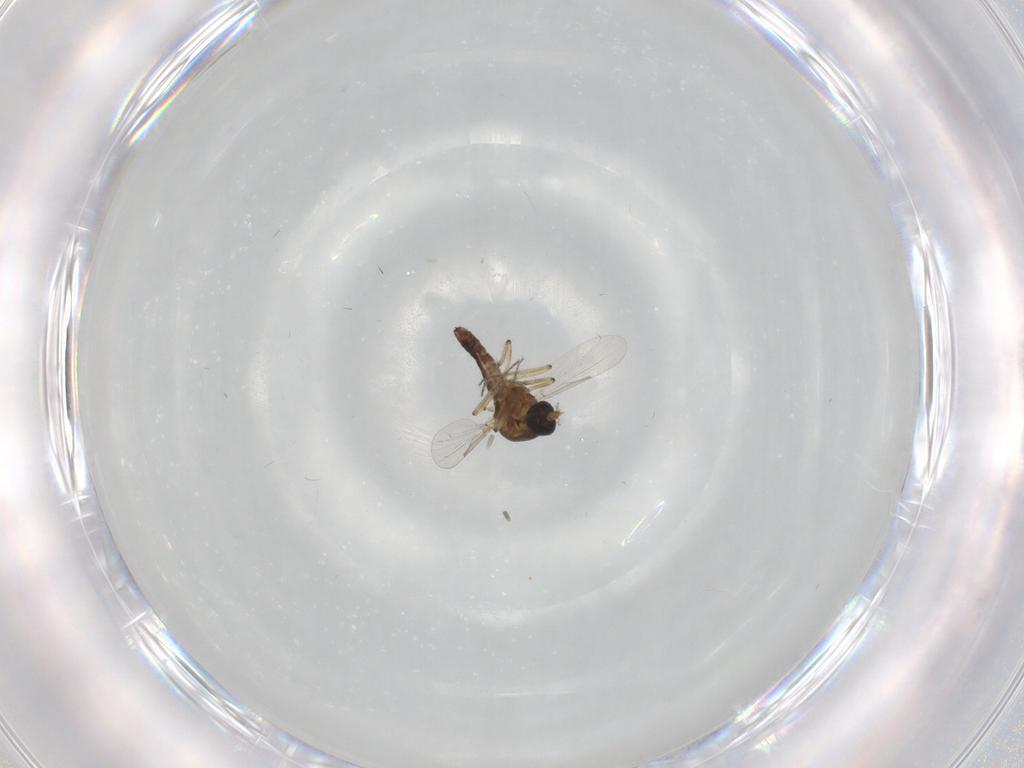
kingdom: Animalia
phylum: Arthropoda
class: Insecta
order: Diptera
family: Ceratopogonidae
